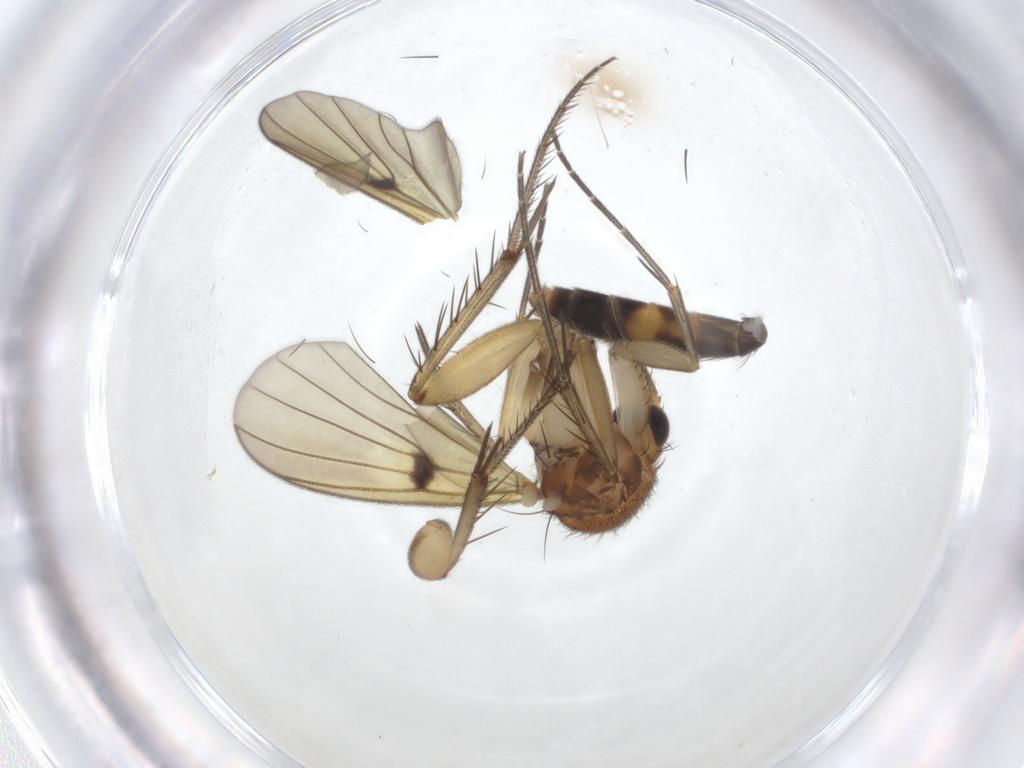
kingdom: Animalia
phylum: Arthropoda
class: Insecta
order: Diptera
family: Mycetophilidae
